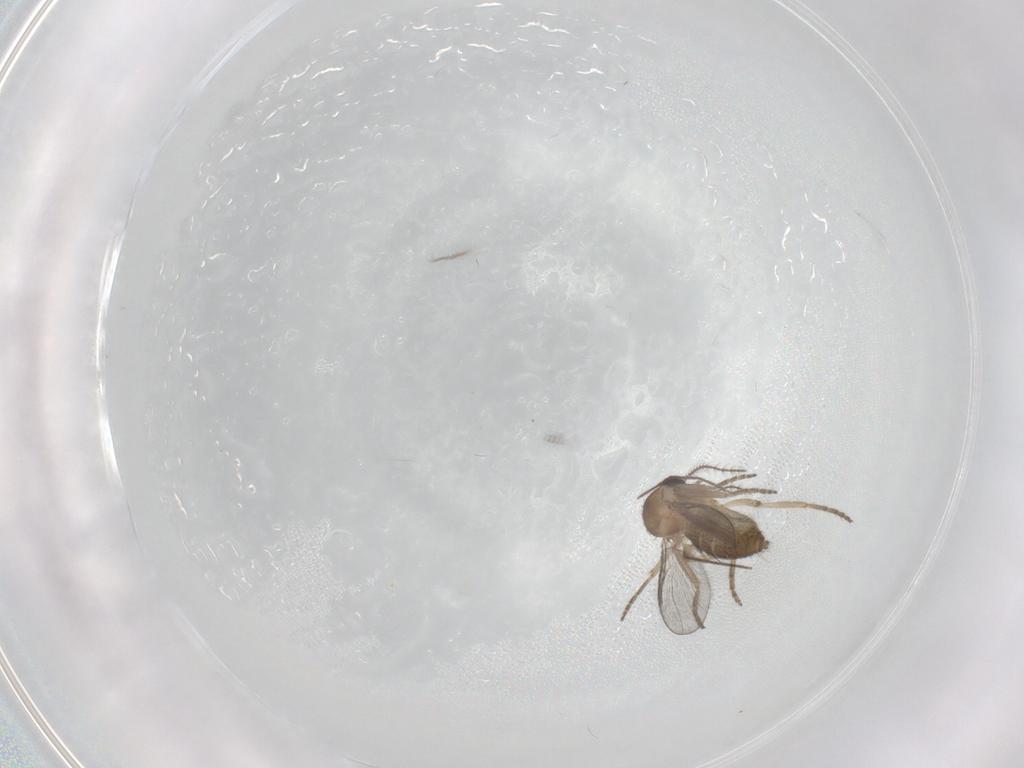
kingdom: Animalia
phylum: Arthropoda
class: Insecta
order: Diptera
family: Ceratopogonidae
